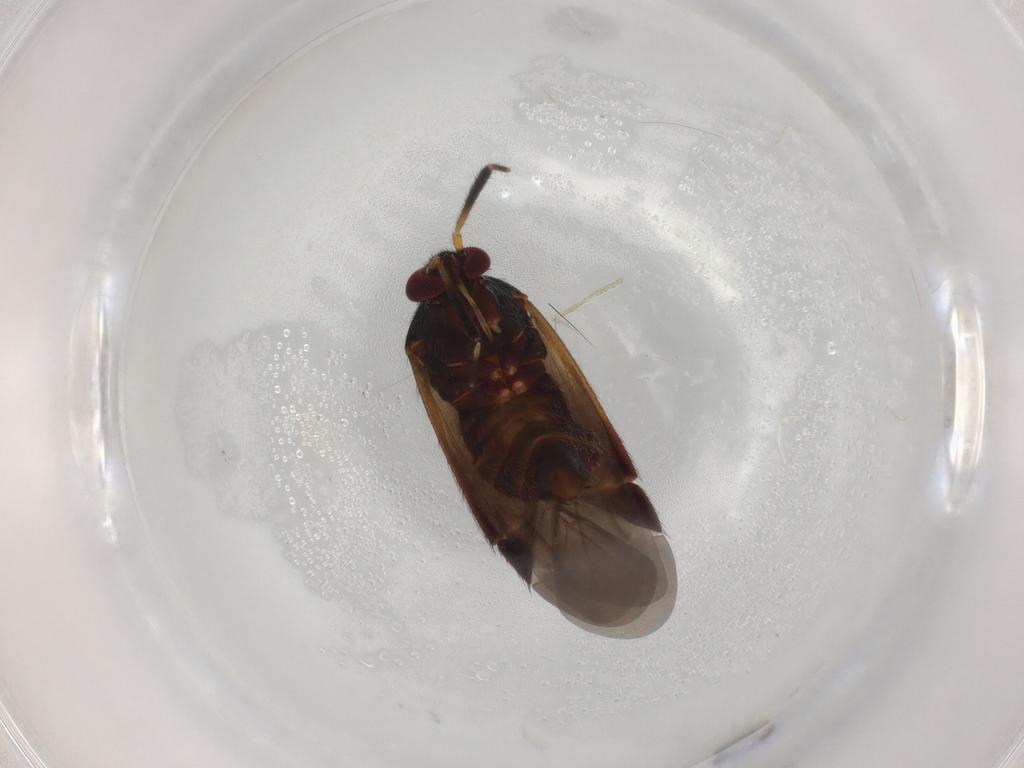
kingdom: Animalia
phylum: Arthropoda
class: Insecta
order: Hemiptera
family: Miridae
